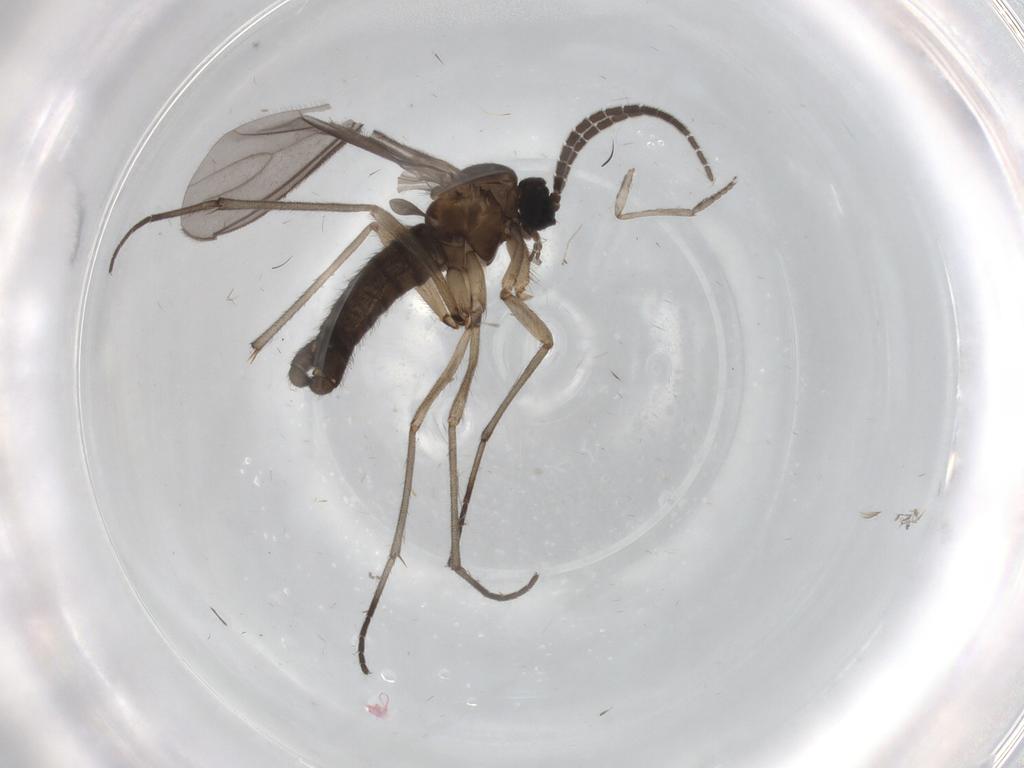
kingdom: Animalia
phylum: Arthropoda
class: Insecta
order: Diptera
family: Sciaridae
